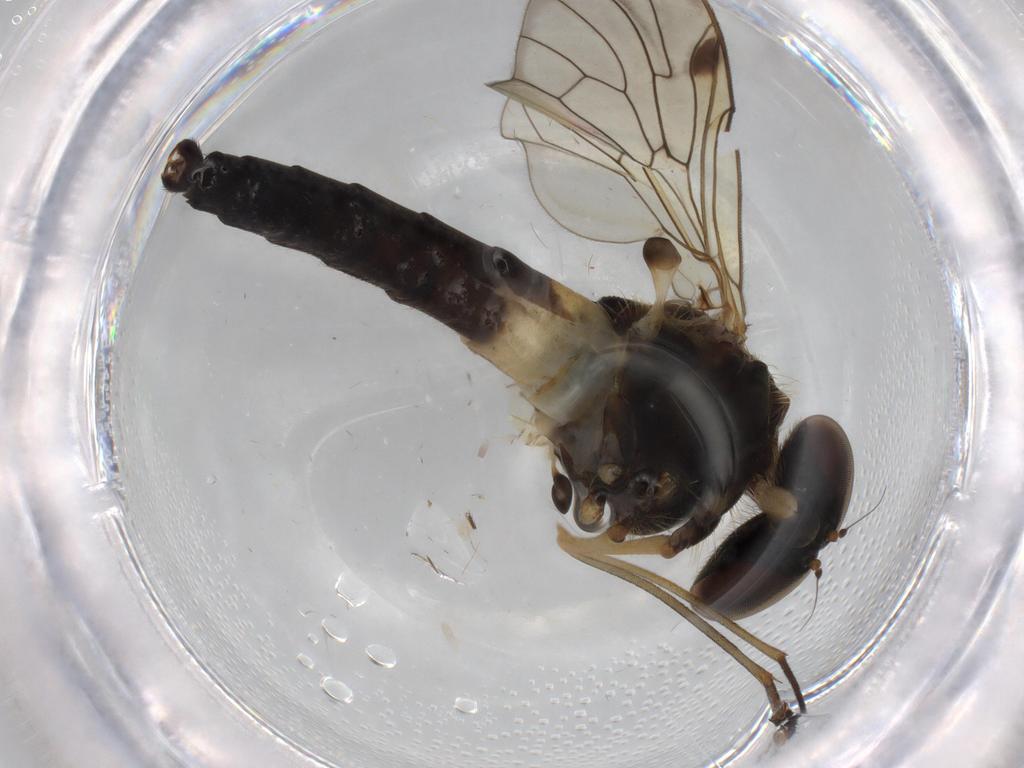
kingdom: Animalia
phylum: Arthropoda
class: Insecta
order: Diptera
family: Phoridae
